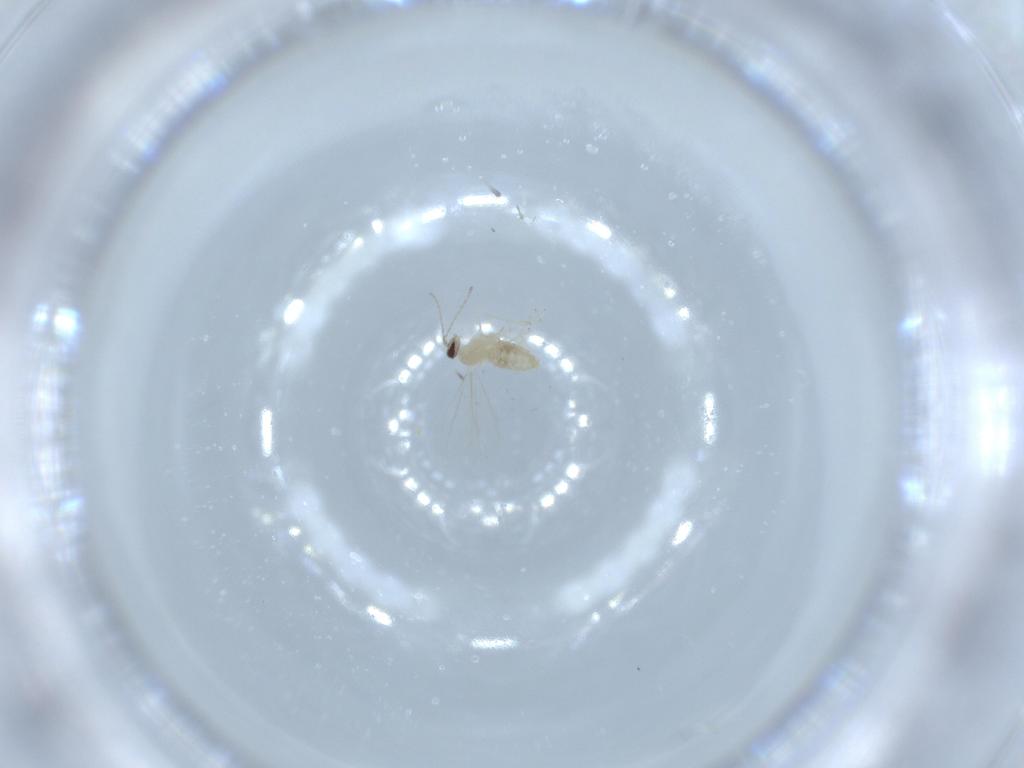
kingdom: Animalia
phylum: Arthropoda
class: Insecta
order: Diptera
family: Cecidomyiidae
